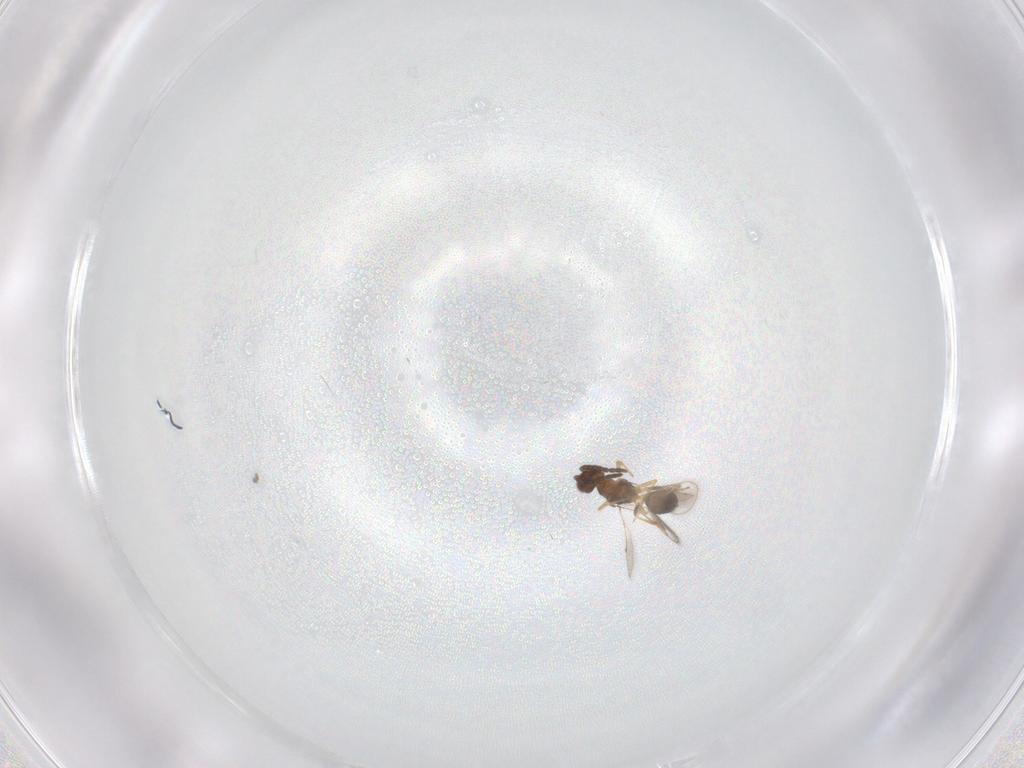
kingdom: Animalia
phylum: Arthropoda
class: Insecta
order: Hymenoptera
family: Pteromalidae
